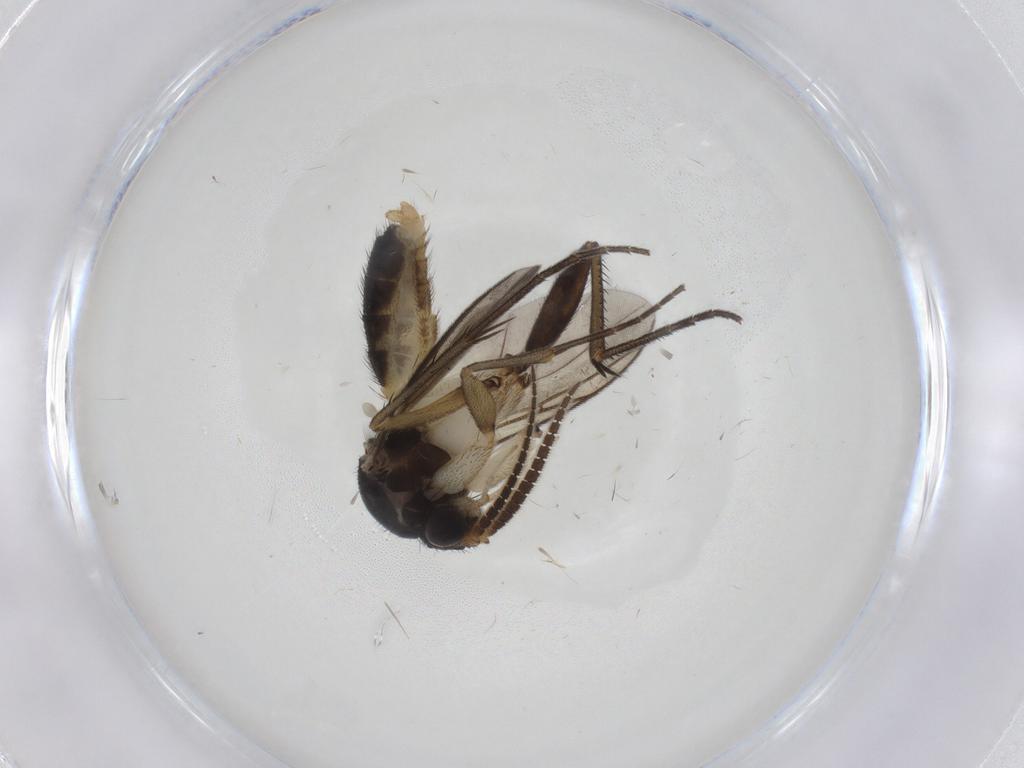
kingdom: Animalia
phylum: Arthropoda
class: Insecta
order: Diptera
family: Mycetophilidae
